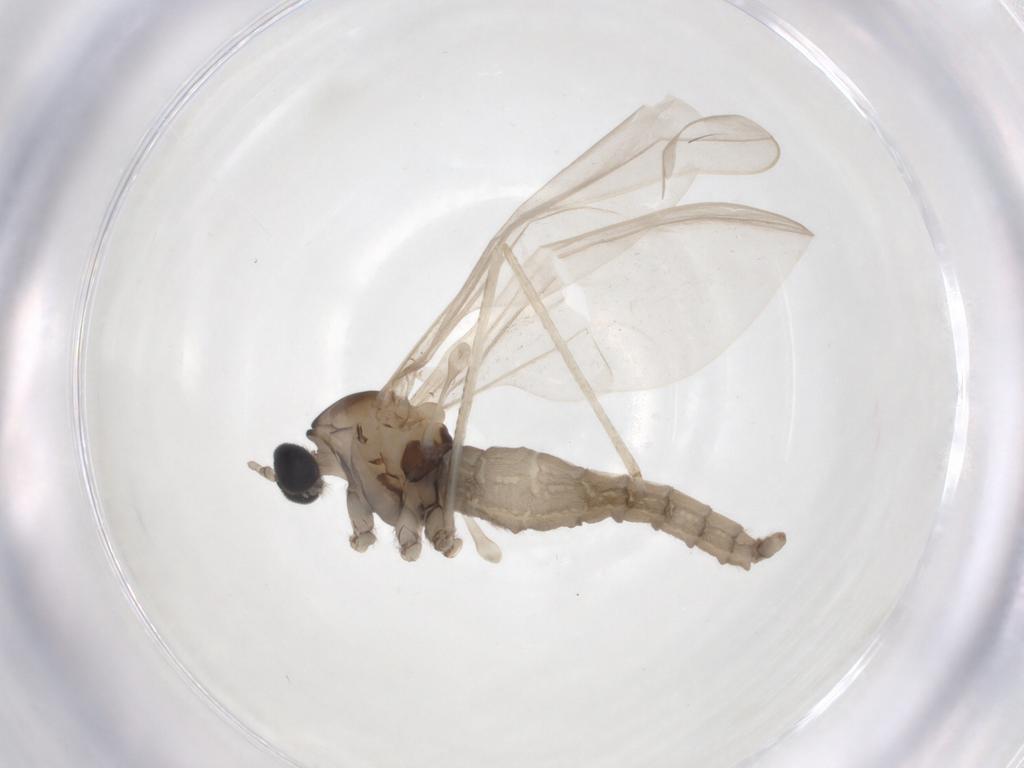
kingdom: Animalia
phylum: Arthropoda
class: Insecta
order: Diptera
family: Cecidomyiidae
